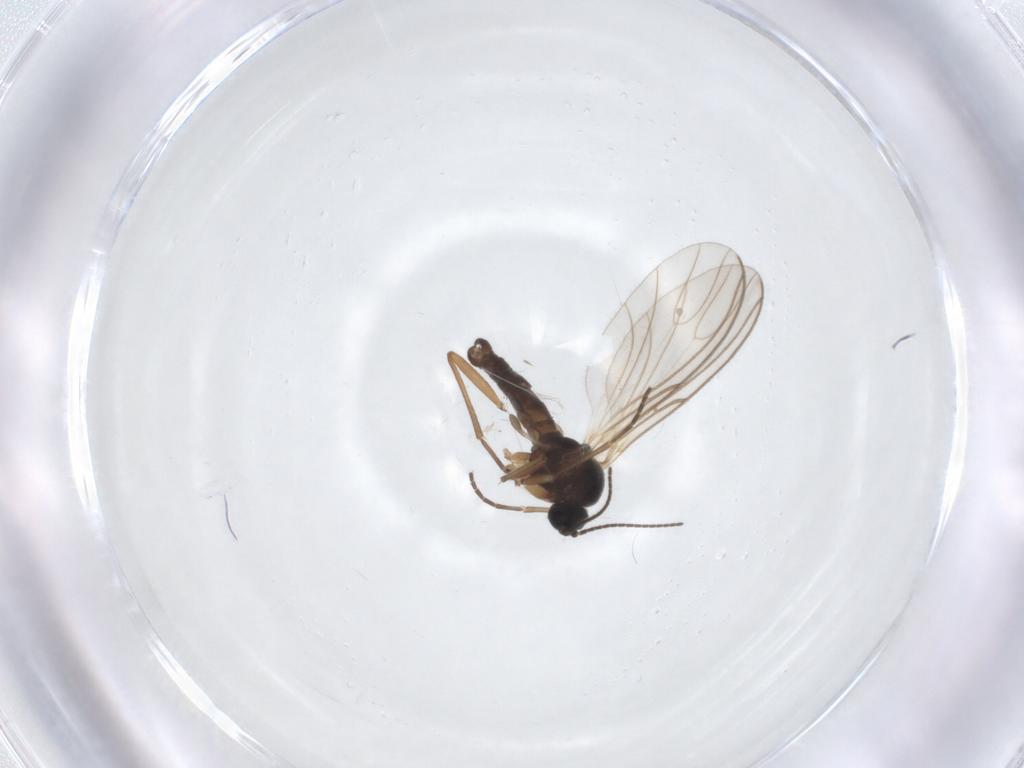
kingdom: Animalia
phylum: Arthropoda
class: Insecta
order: Diptera
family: Sciaridae
